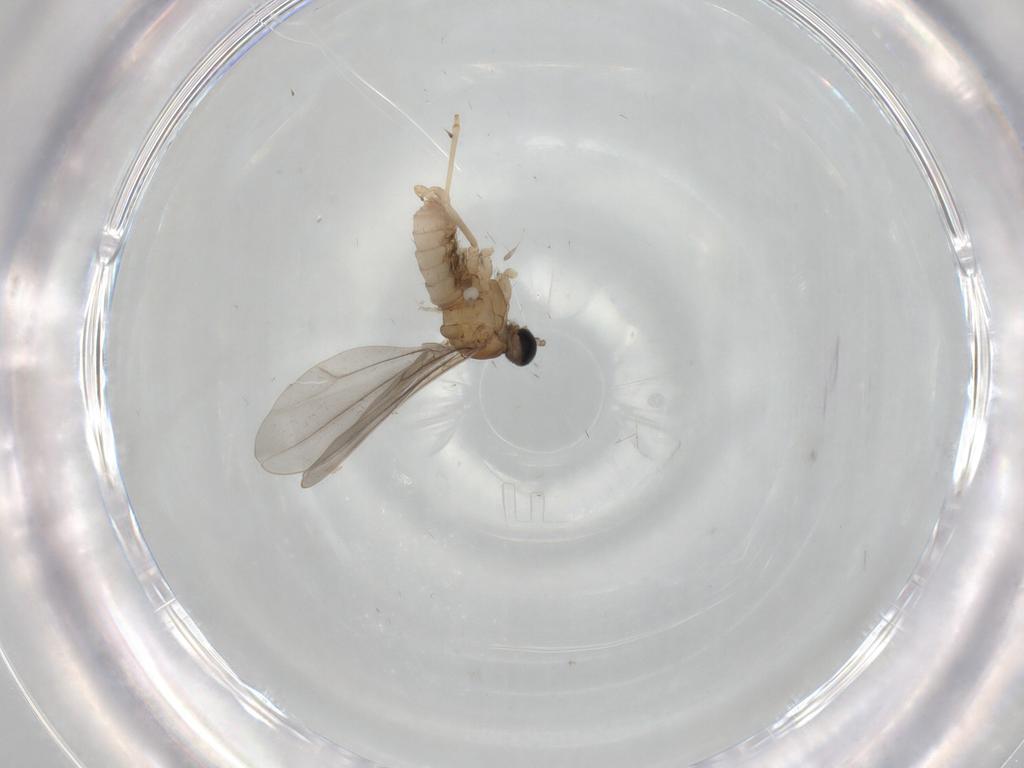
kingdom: Animalia
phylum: Arthropoda
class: Insecta
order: Diptera
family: Cecidomyiidae
